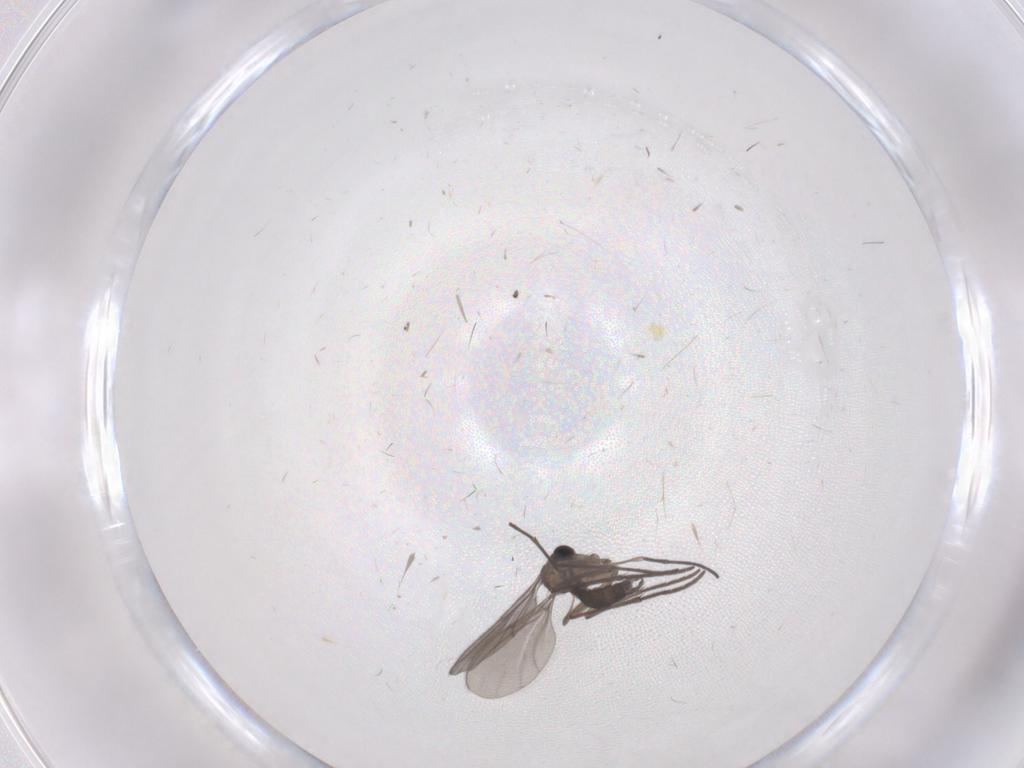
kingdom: Animalia
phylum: Arthropoda
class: Insecta
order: Diptera
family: Sciaridae
